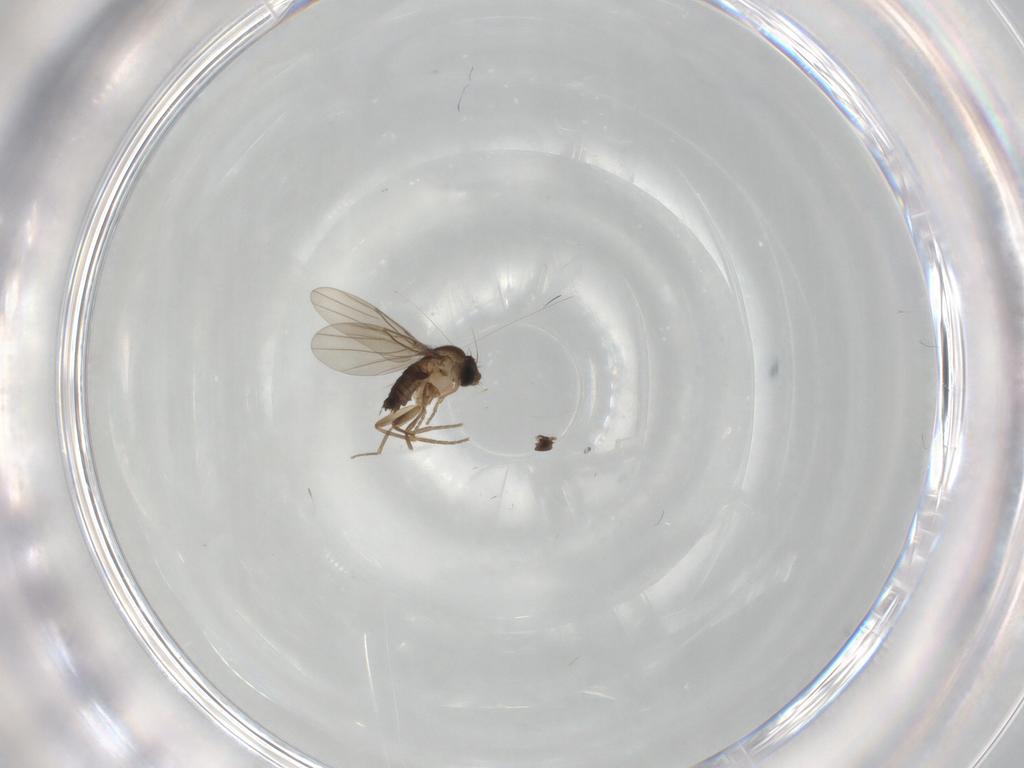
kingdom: Animalia
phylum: Arthropoda
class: Insecta
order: Diptera
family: Phoridae
